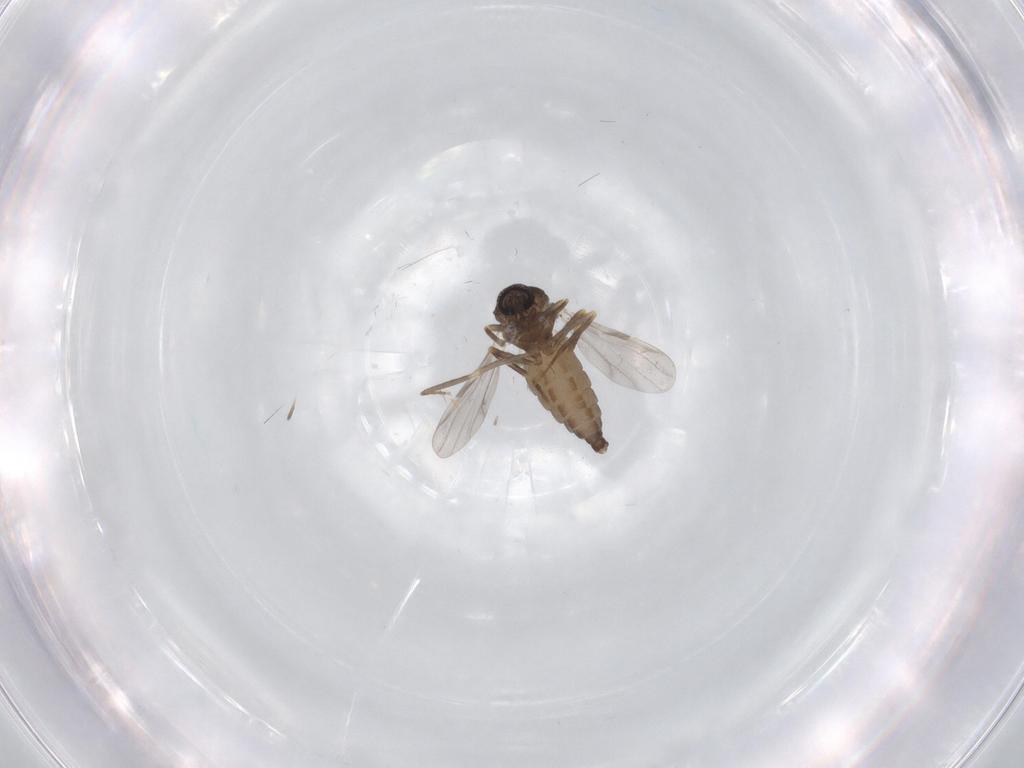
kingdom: Animalia
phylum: Arthropoda
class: Insecta
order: Diptera
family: Ceratopogonidae
